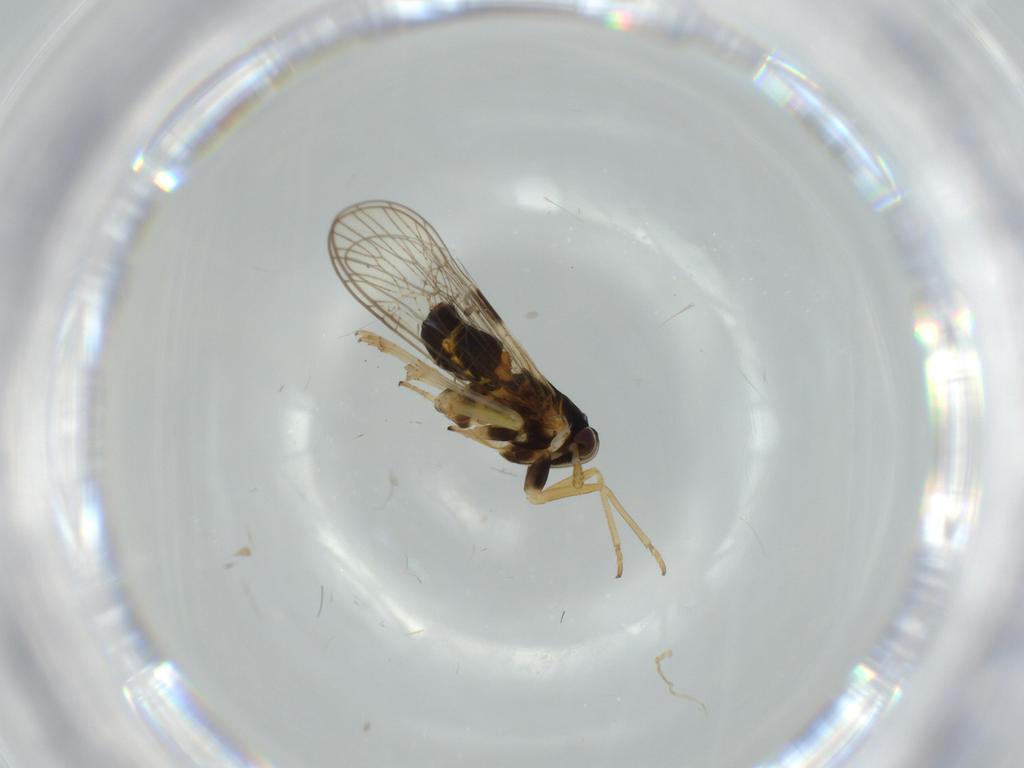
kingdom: Animalia
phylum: Arthropoda
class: Insecta
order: Hemiptera
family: Cicadellidae
